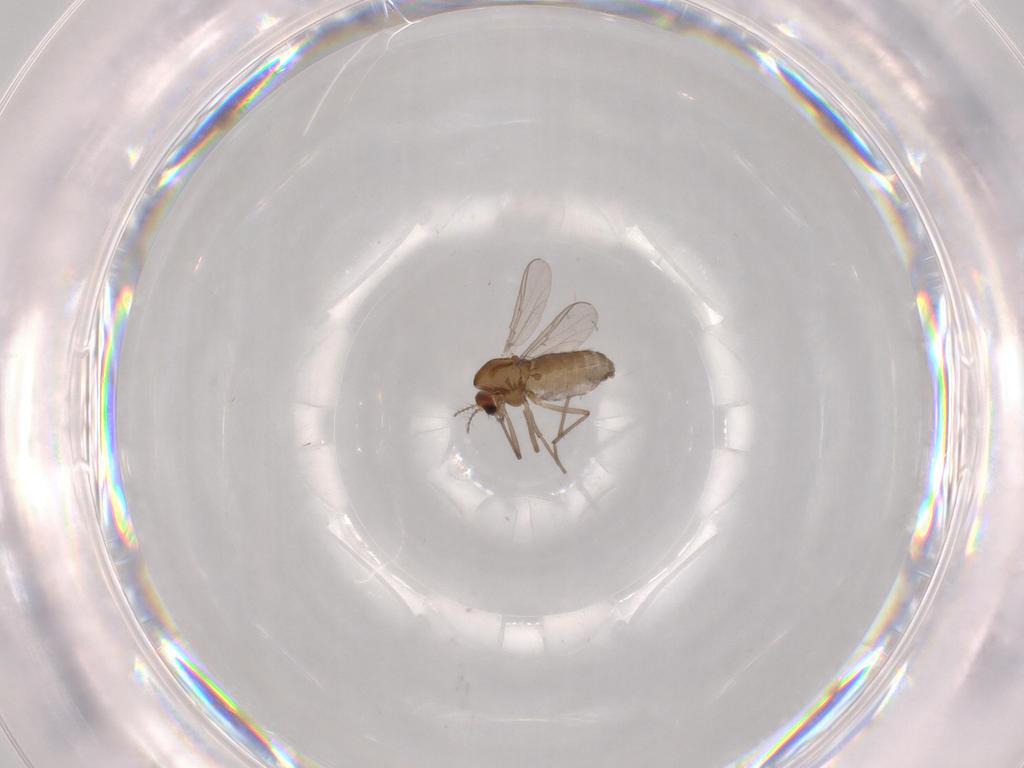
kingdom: Animalia
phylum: Arthropoda
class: Insecta
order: Diptera
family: Chironomidae
